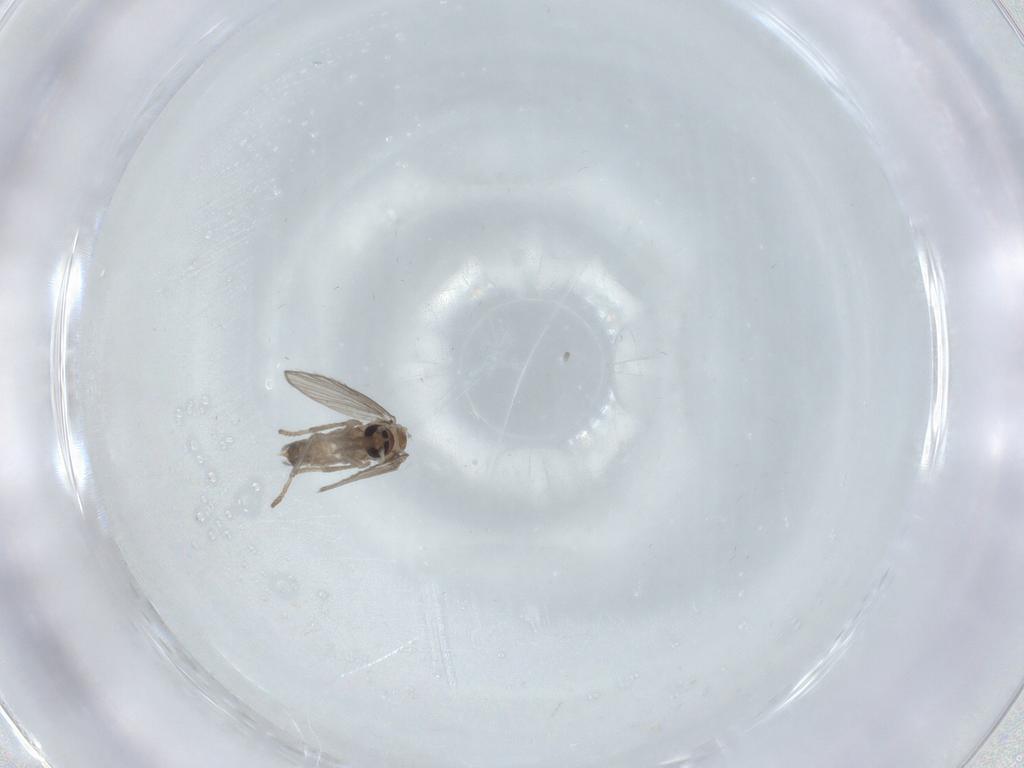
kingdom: Animalia
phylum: Arthropoda
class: Insecta
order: Diptera
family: Psychodidae
